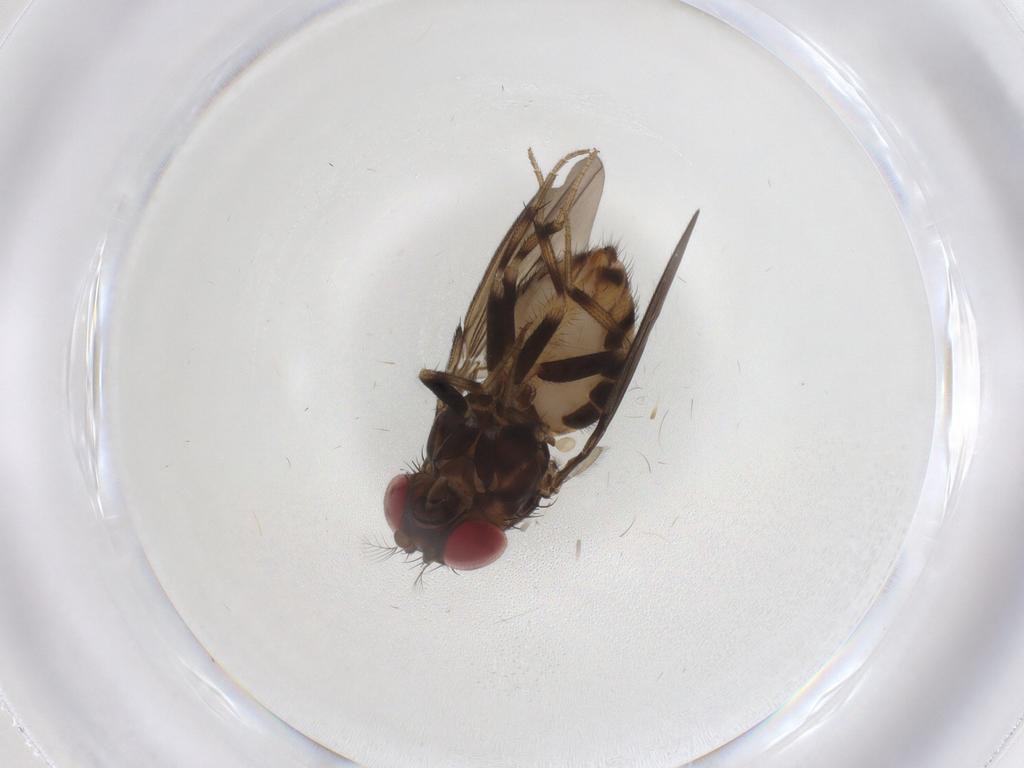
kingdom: Animalia
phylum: Arthropoda
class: Insecta
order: Diptera
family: Drosophilidae
